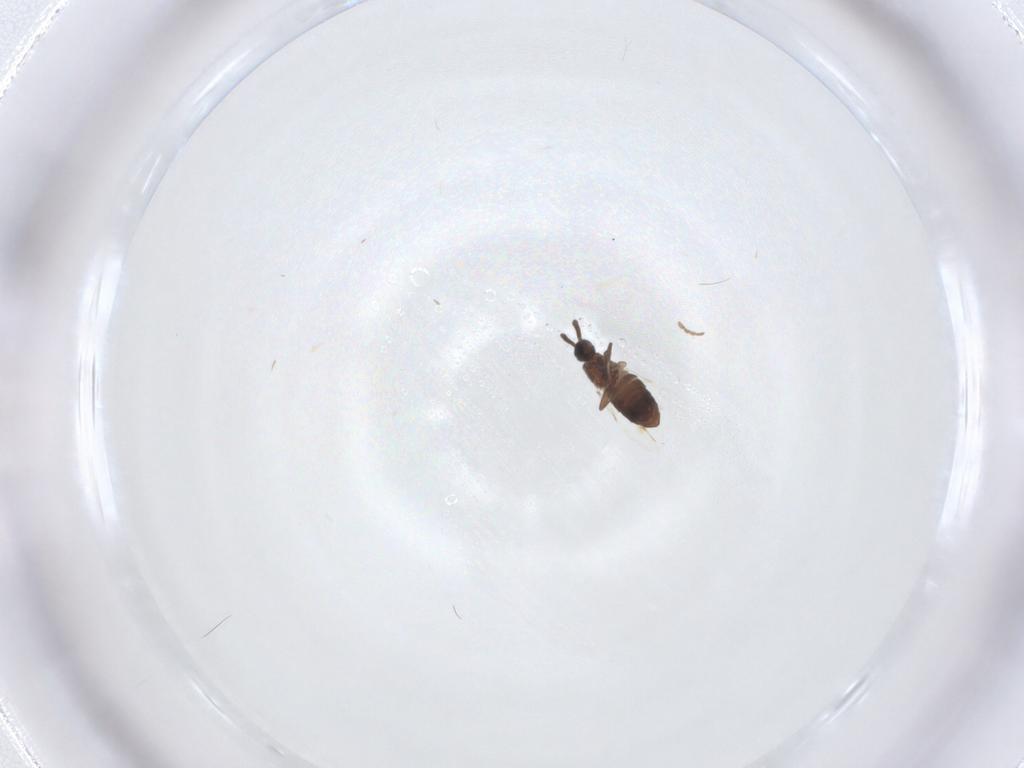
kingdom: Animalia
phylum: Arthropoda
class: Insecta
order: Diptera
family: Scatopsidae
